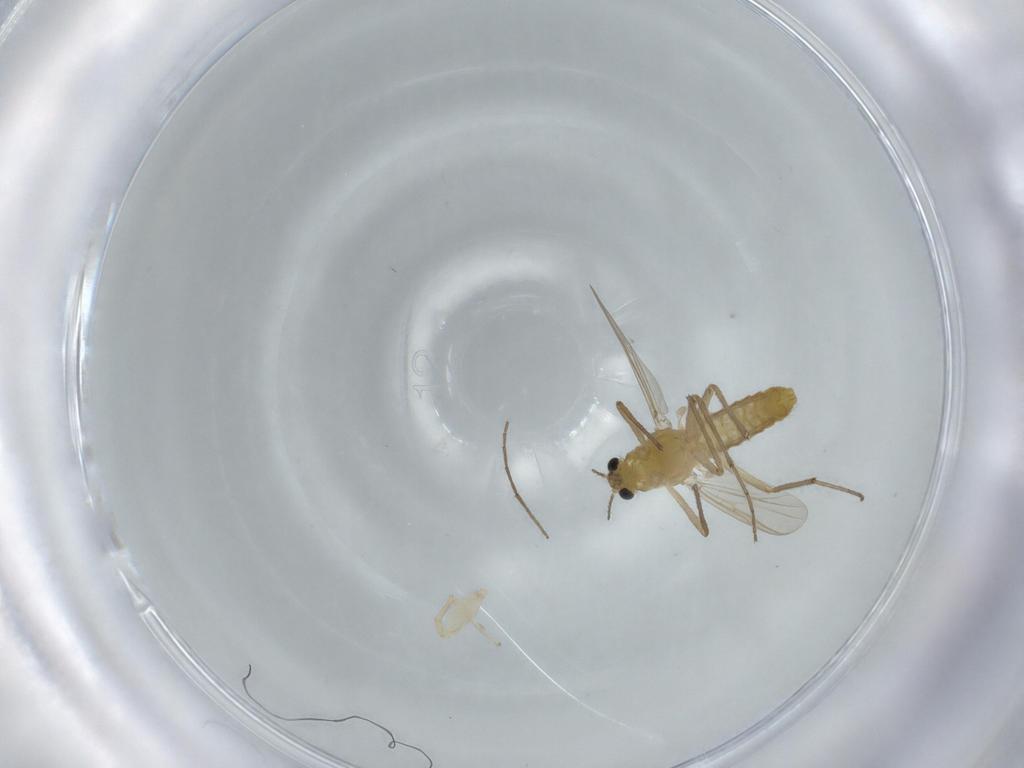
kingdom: Animalia
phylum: Arthropoda
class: Insecta
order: Diptera
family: Chironomidae
